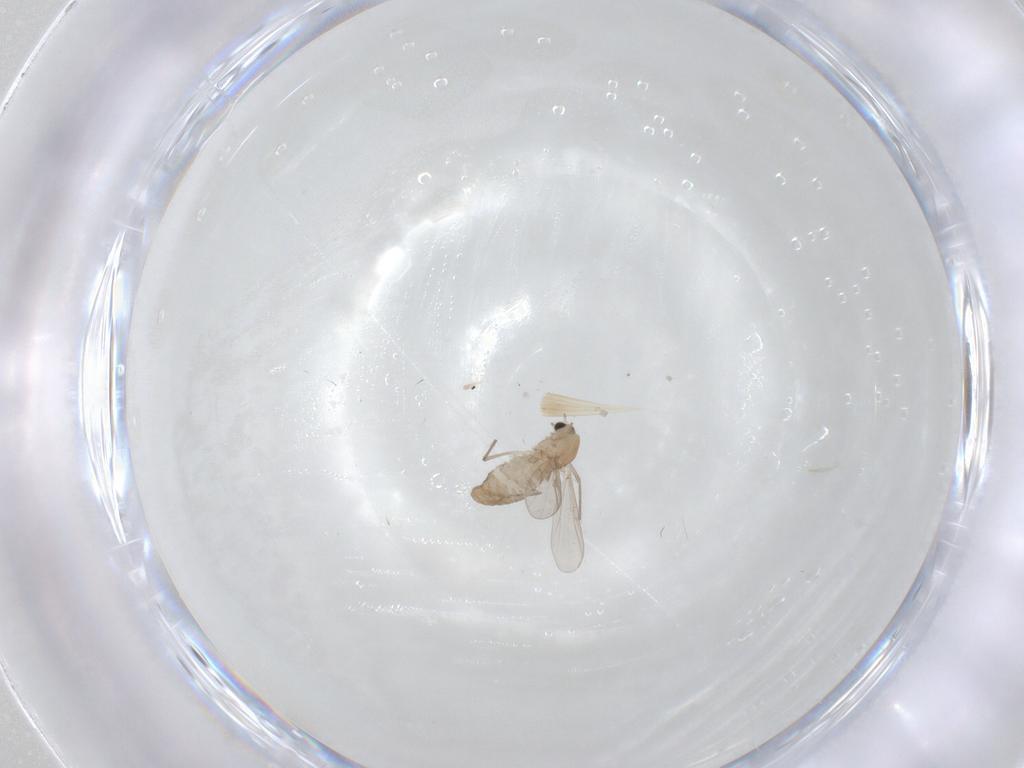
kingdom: Animalia
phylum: Arthropoda
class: Insecta
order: Diptera
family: Chironomidae
